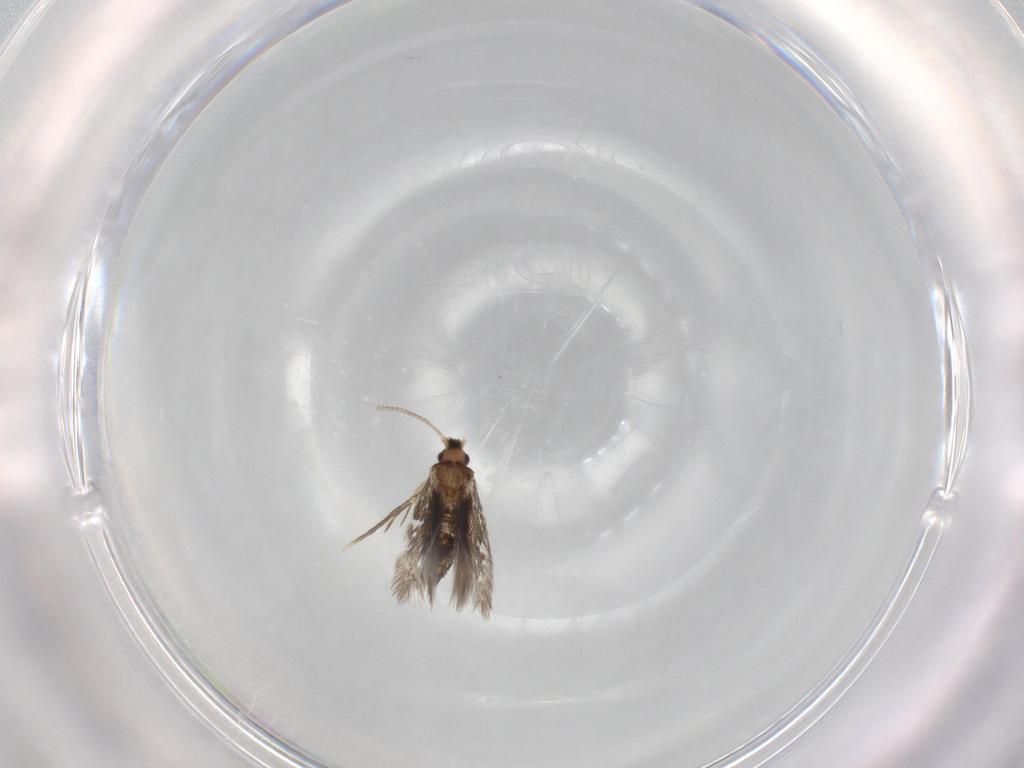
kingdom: Animalia
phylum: Arthropoda
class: Insecta
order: Lepidoptera
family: Nepticulidae
